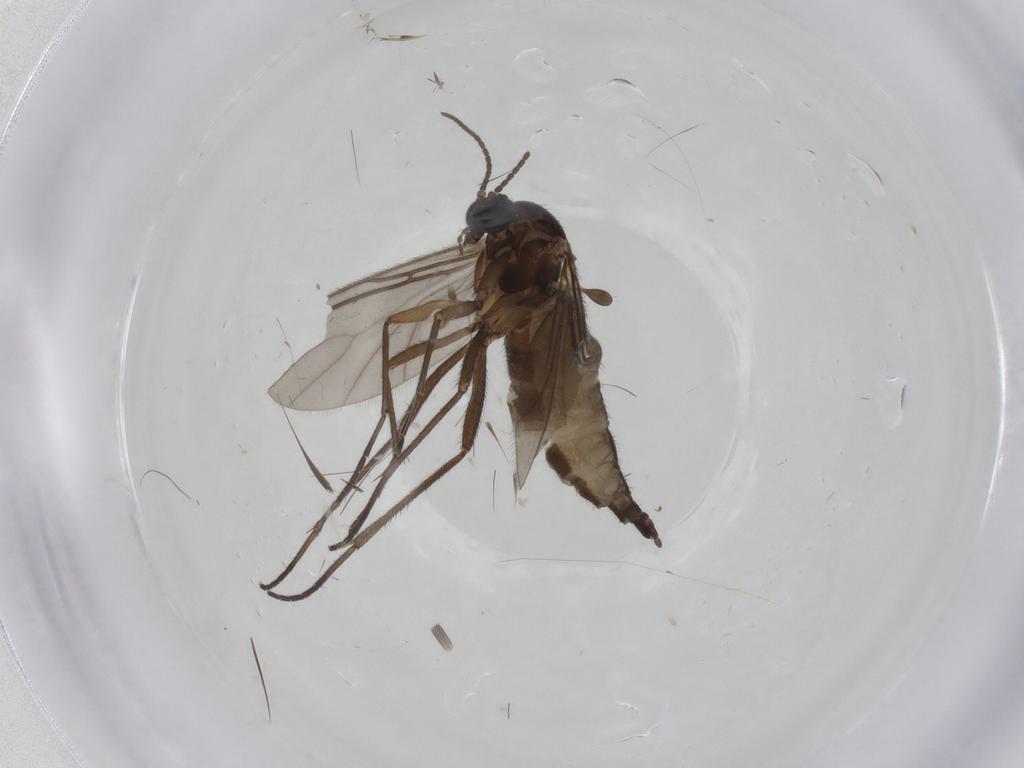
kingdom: Animalia
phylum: Arthropoda
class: Insecta
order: Diptera
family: Sciaridae
